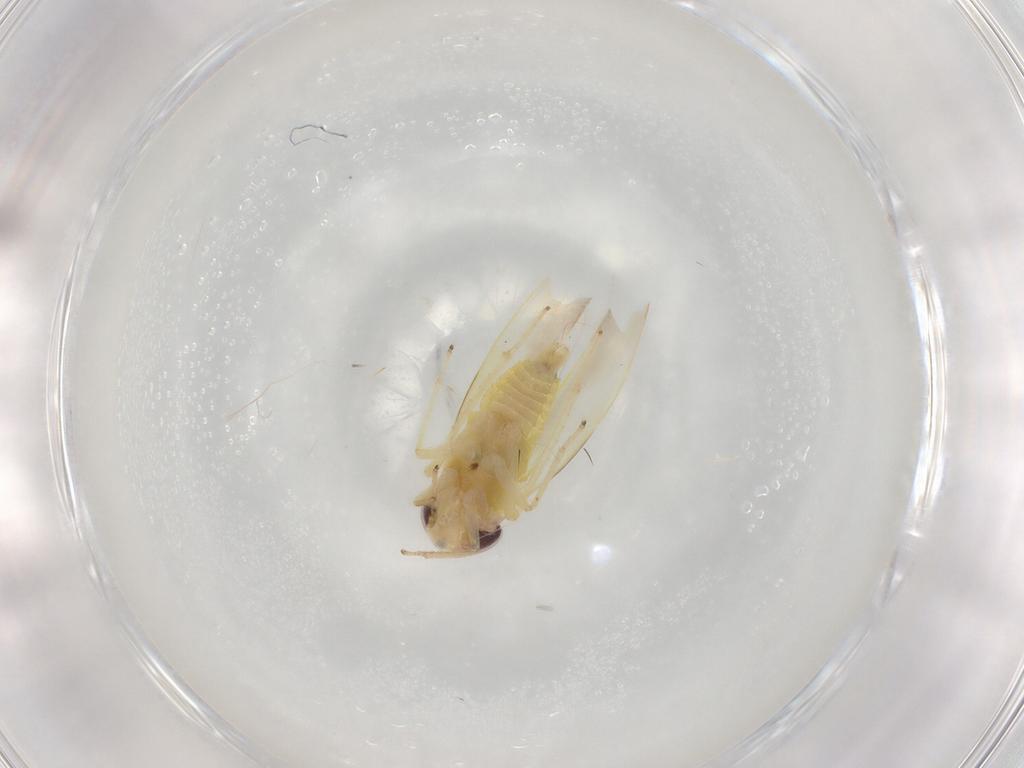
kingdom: Animalia
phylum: Arthropoda
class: Insecta
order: Hemiptera
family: Cicadellidae
